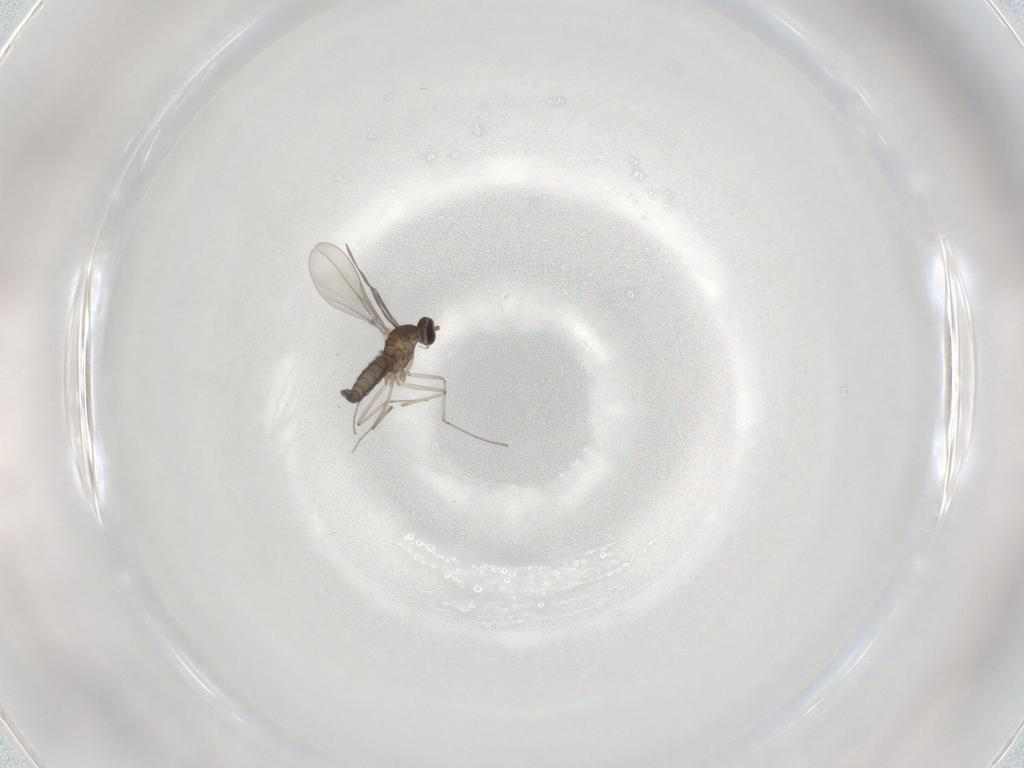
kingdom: Animalia
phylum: Arthropoda
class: Insecta
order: Diptera
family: Cecidomyiidae
